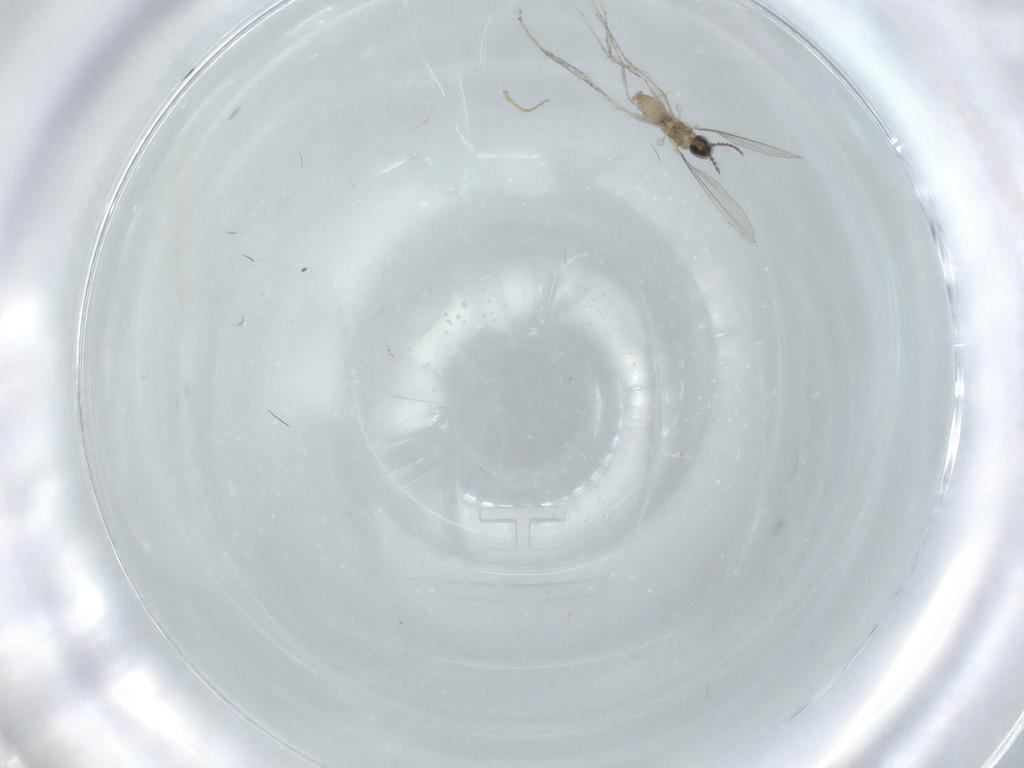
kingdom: Animalia
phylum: Arthropoda
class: Insecta
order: Diptera
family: Cecidomyiidae
